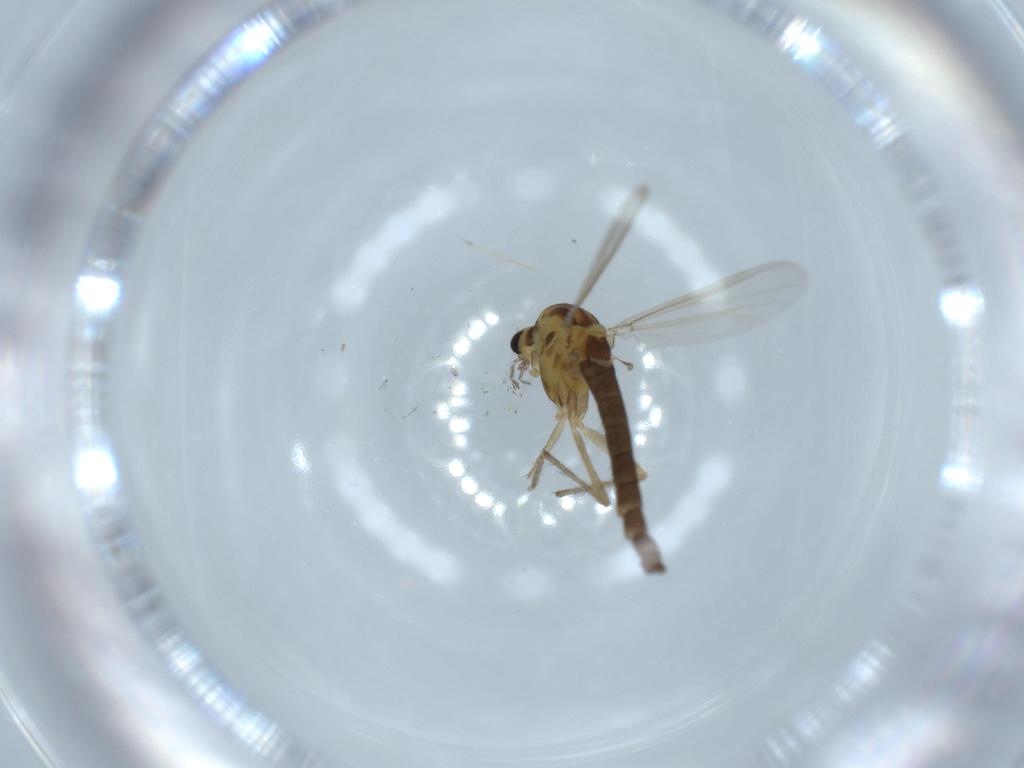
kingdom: Animalia
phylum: Arthropoda
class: Insecta
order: Diptera
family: Chironomidae
